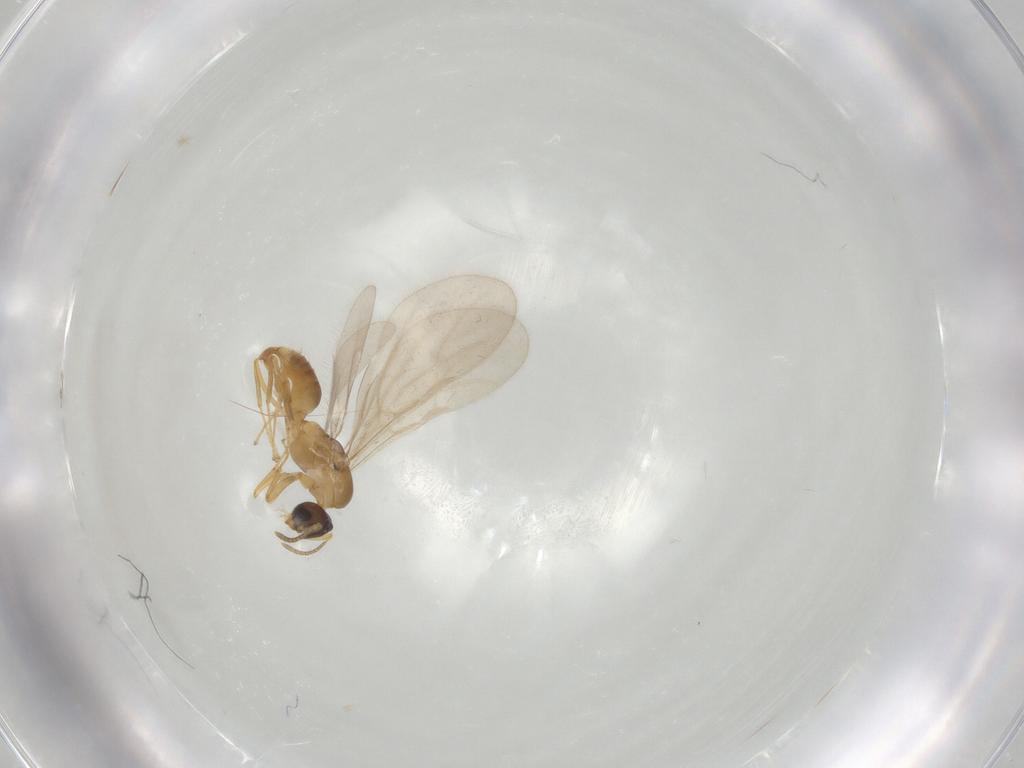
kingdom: Animalia
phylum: Arthropoda
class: Insecta
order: Hymenoptera
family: Formicidae
